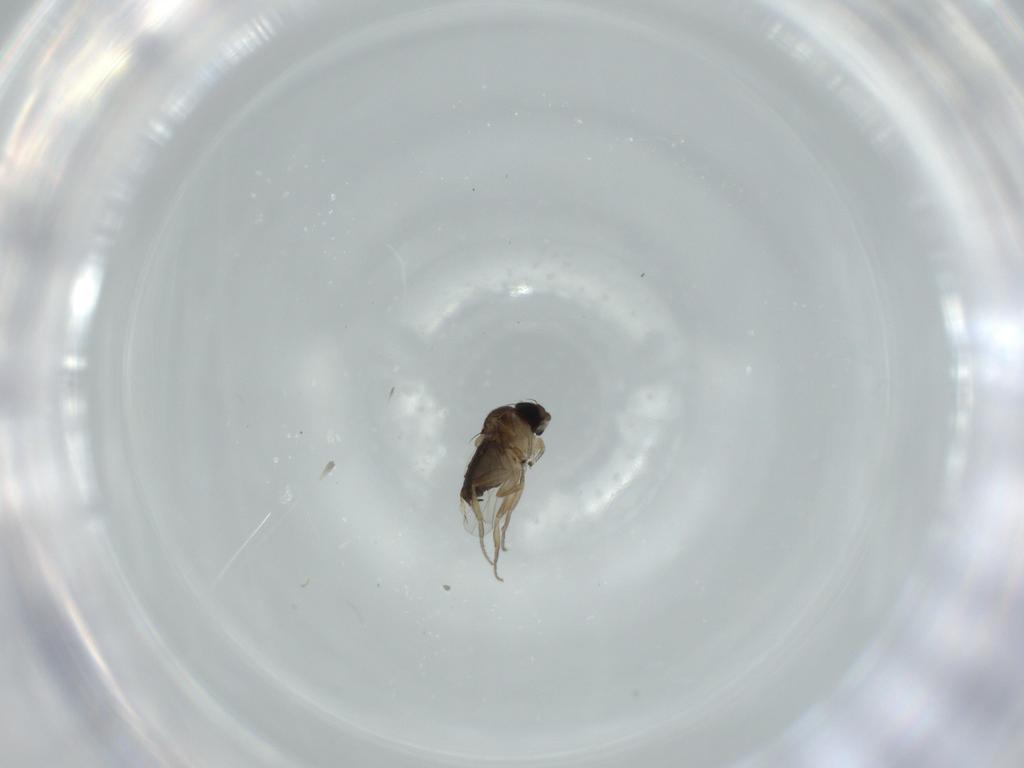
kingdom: Animalia
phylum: Arthropoda
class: Insecta
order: Diptera
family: Phoridae
